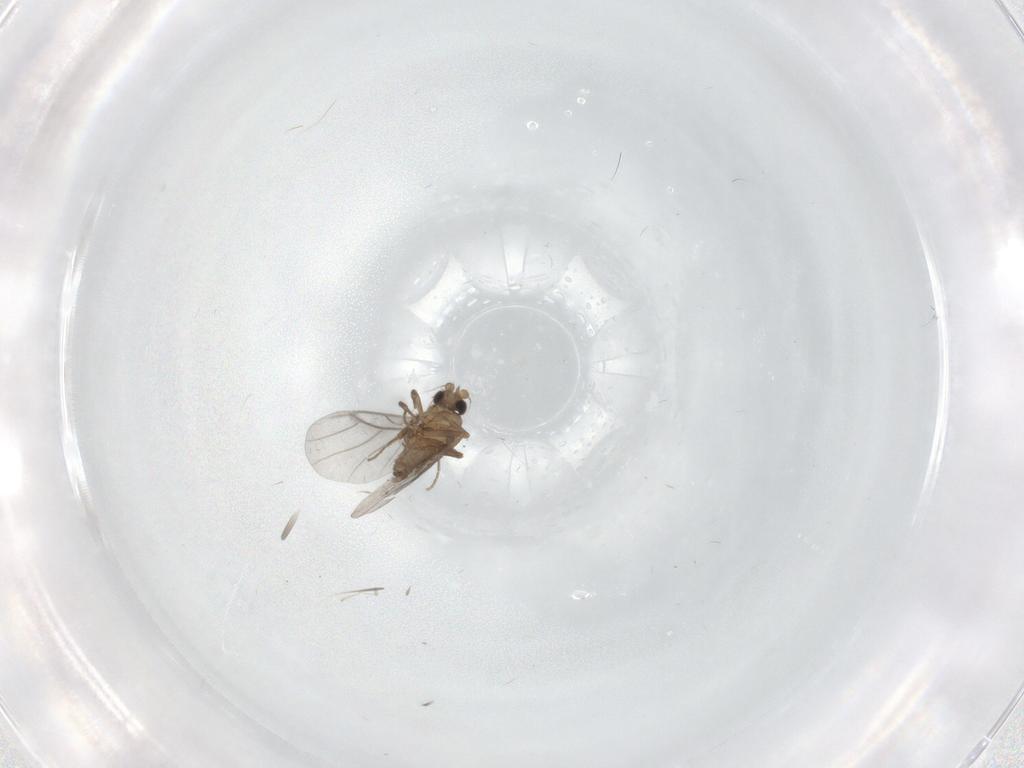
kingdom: Animalia
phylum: Arthropoda
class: Insecta
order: Diptera
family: Cecidomyiidae
